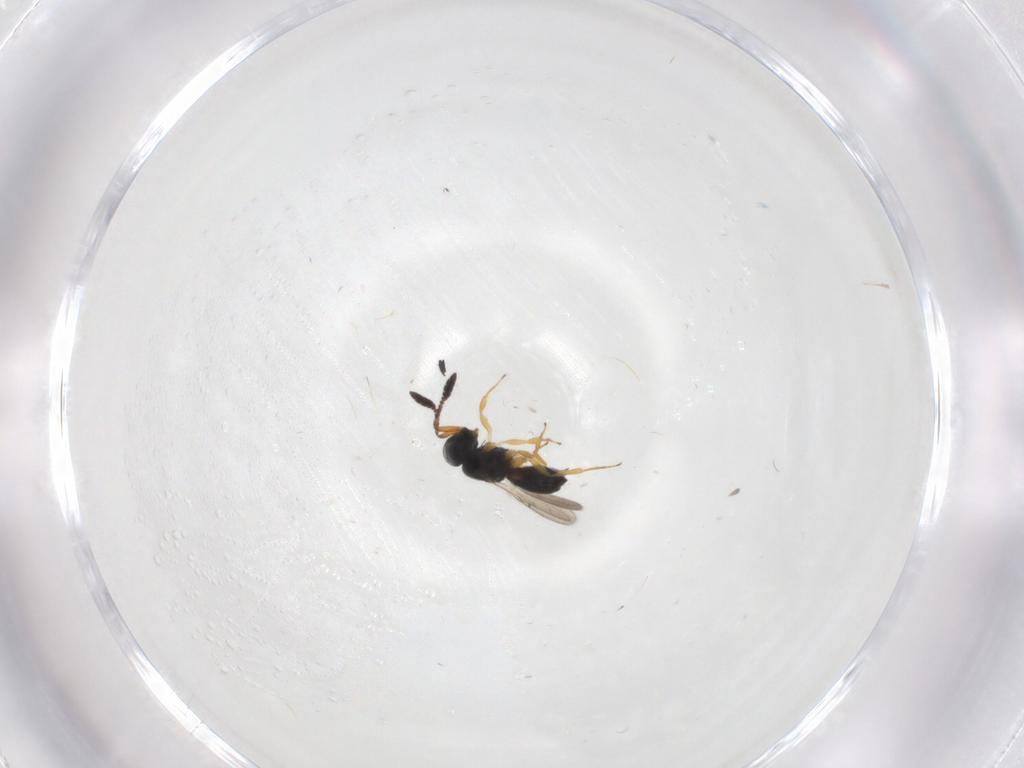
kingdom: Animalia
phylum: Arthropoda
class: Insecta
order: Hymenoptera
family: Scelionidae
